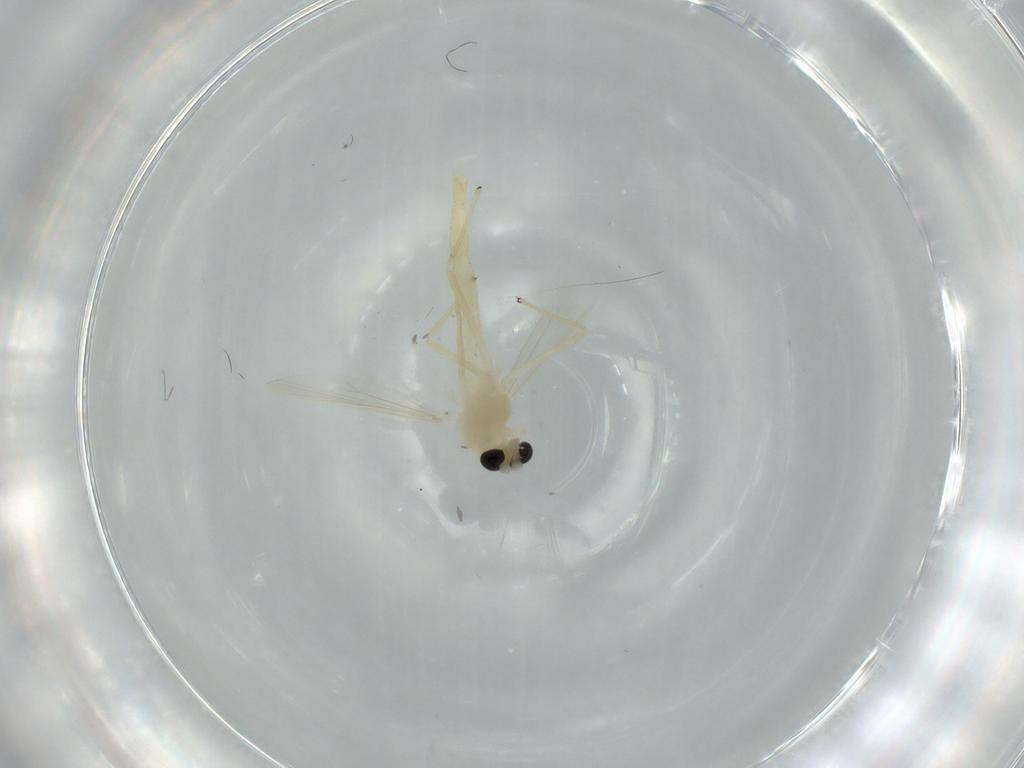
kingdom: Animalia
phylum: Arthropoda
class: Insecta
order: Diptera
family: Chironomidae
